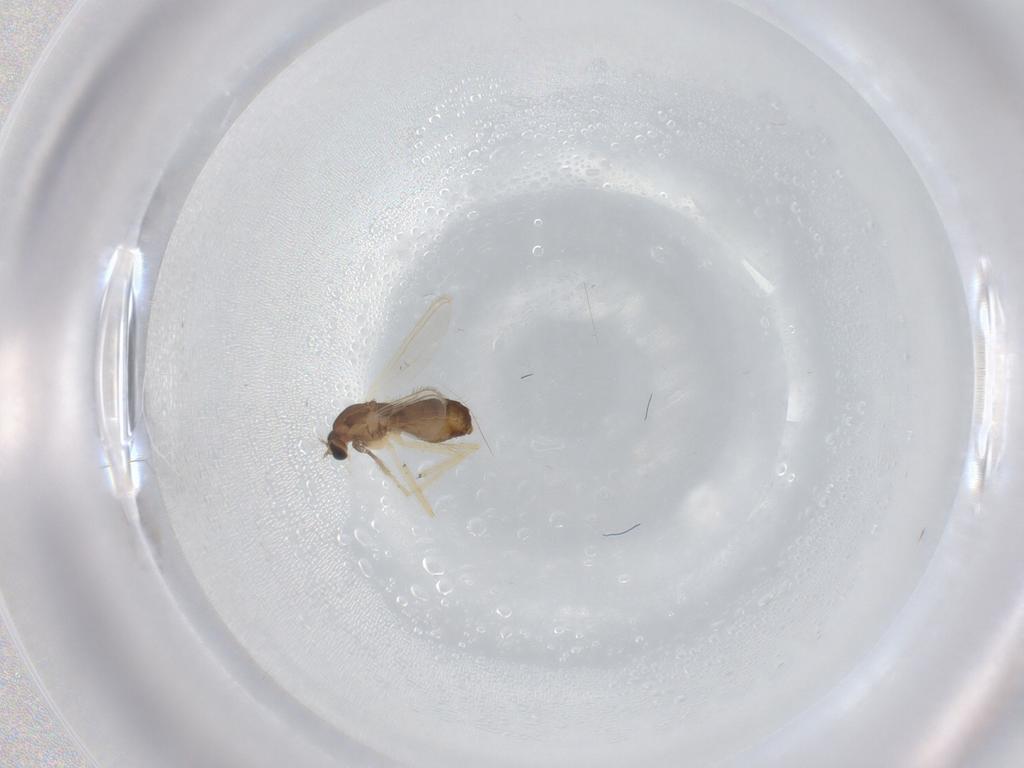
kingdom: Animalia
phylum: Arthropoda
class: Insecta
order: Diptera
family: Chironomidae
